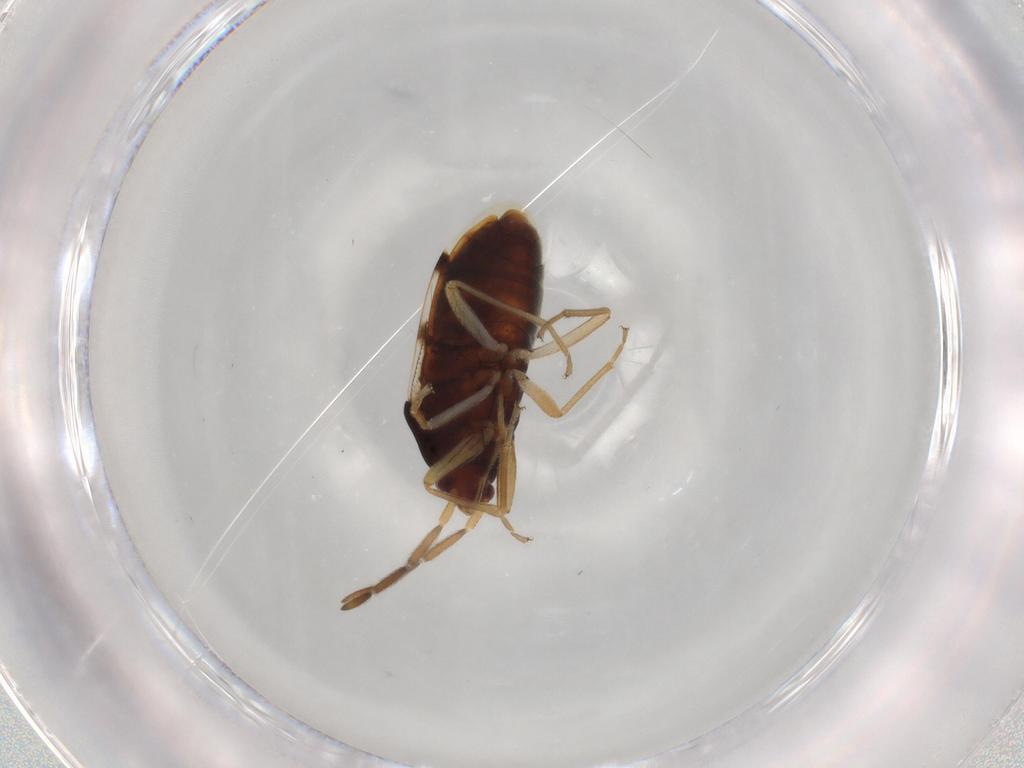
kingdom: Animalia
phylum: Arthropoda
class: Insecta
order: Hemiptera
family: Rhyparochromidae
